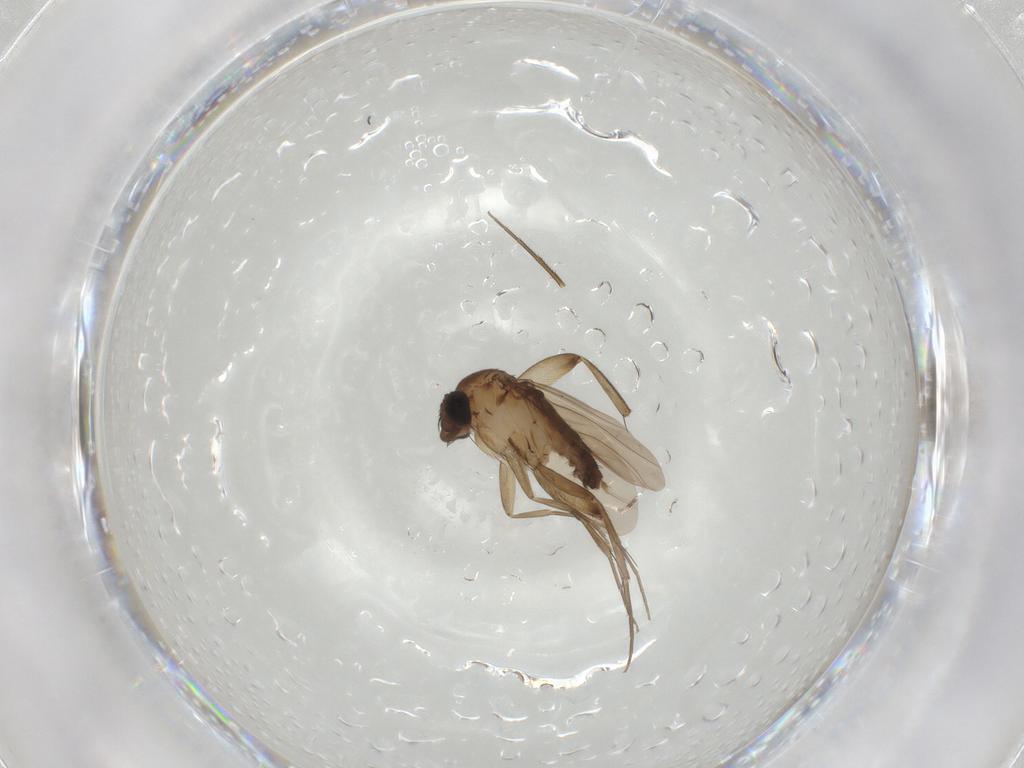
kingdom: Animalia
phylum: Arthropoda
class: Insecta
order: Diptera
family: Phoridae
